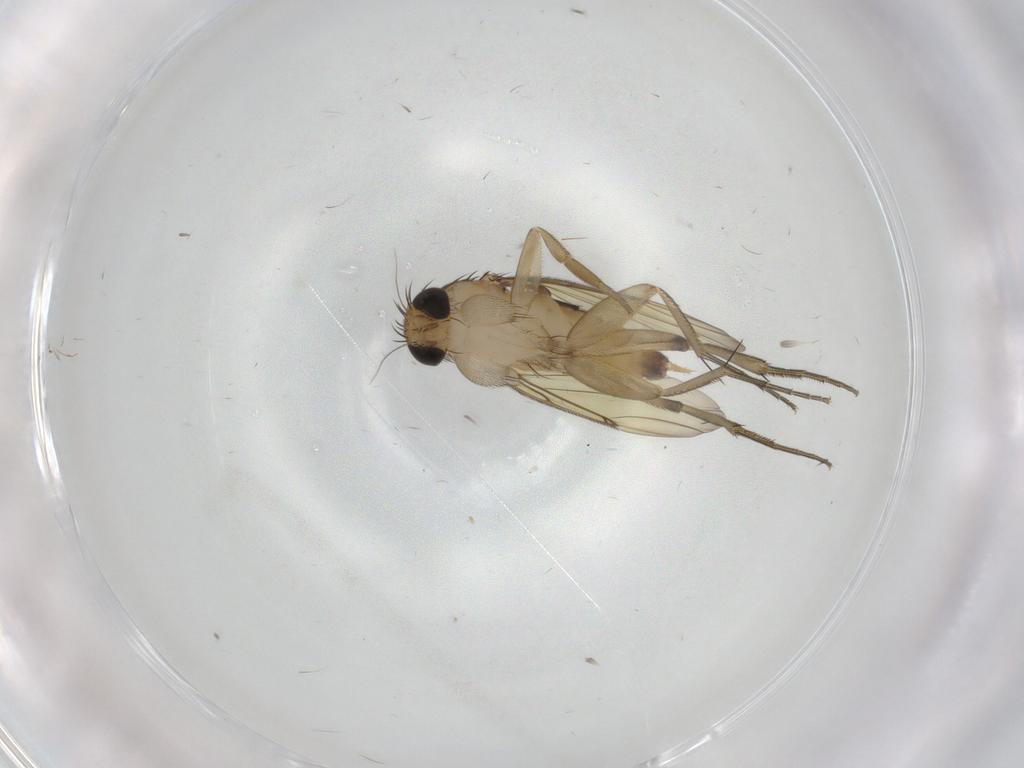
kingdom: Animalia
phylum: Arthropoda
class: Insecta
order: Diptera
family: Phoridae
